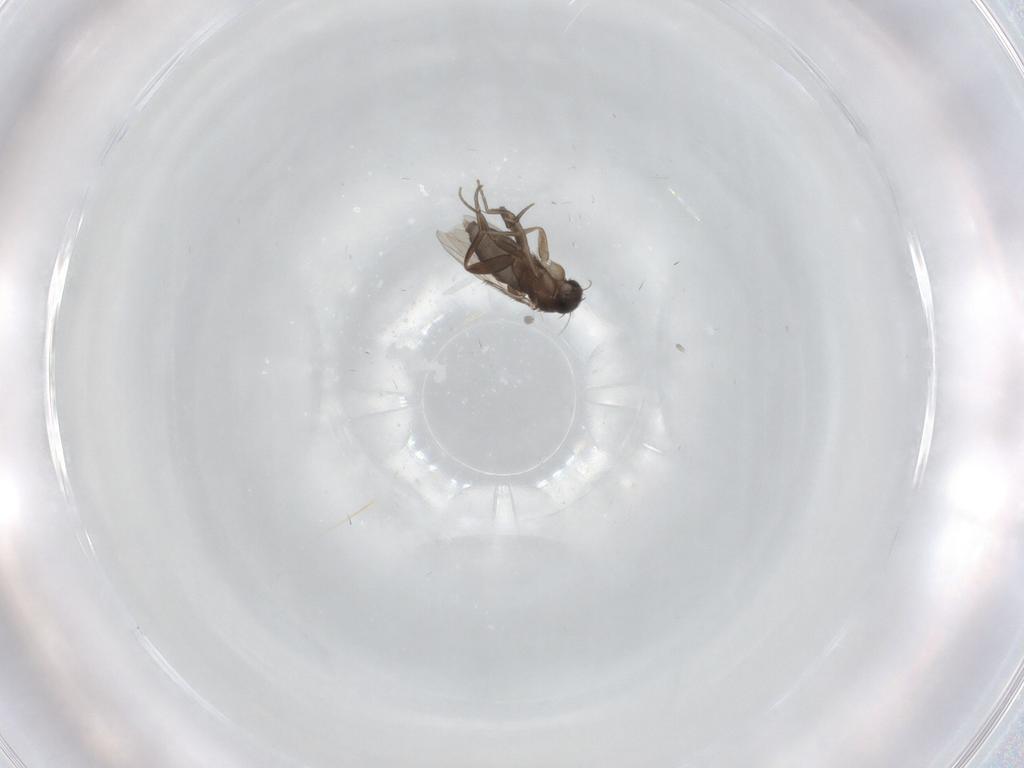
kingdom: Animalia
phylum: Arthropoda
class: Insecta
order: Diptera
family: Phoridae
